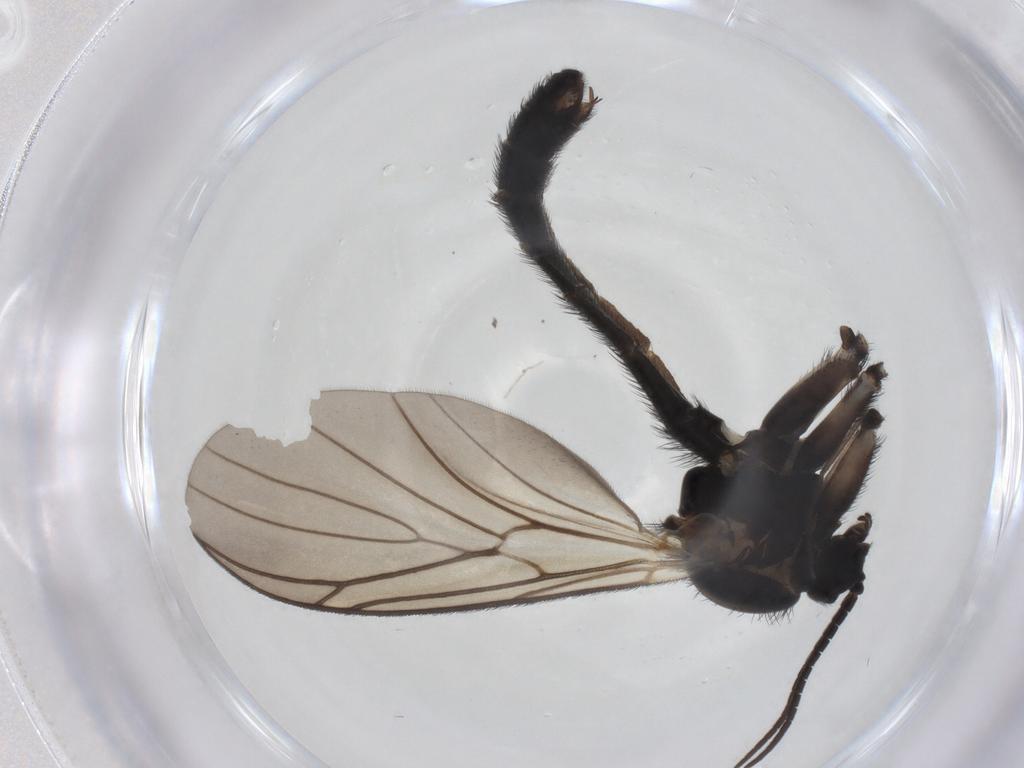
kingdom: Animalia
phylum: Arthropoda
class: Insecta
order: Diptera
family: Keroplatidae
